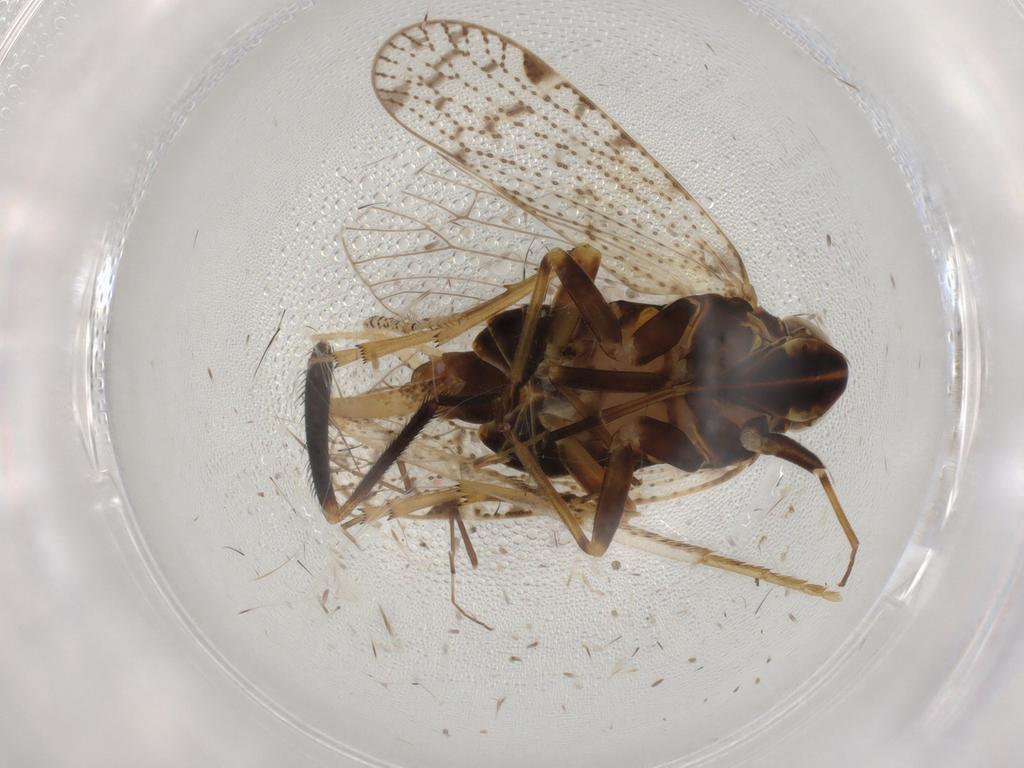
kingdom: Animalia
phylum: Arthropoda
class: Insecta
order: Hemiptera
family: Cixiidae
